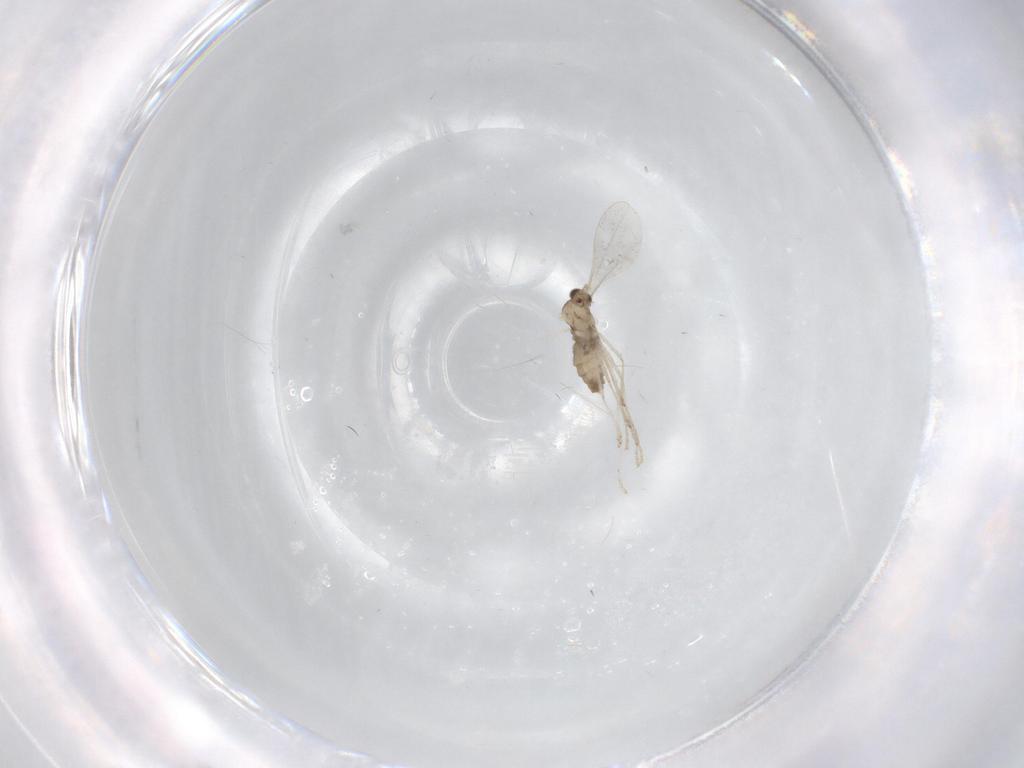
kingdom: Animalia
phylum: Arthropoda
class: Insecta
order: Diptera
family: Cecidomyiidae
